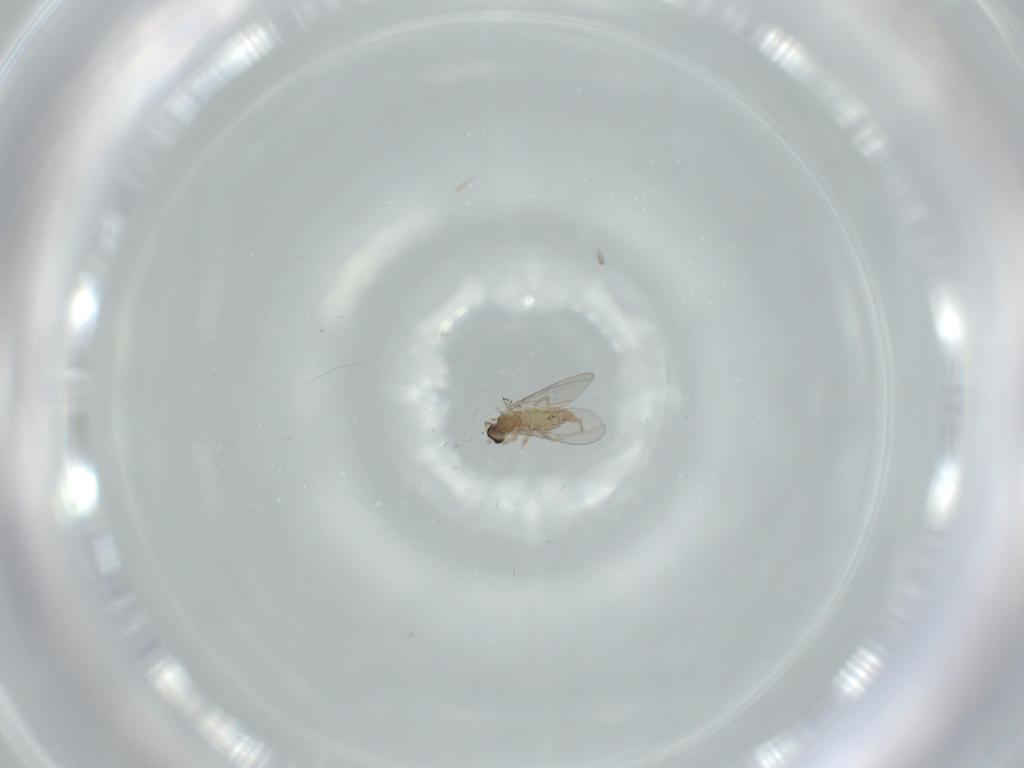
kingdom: Animalia
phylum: Arthropoda
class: Insecta
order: Diptera
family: Cecidomyiidae
